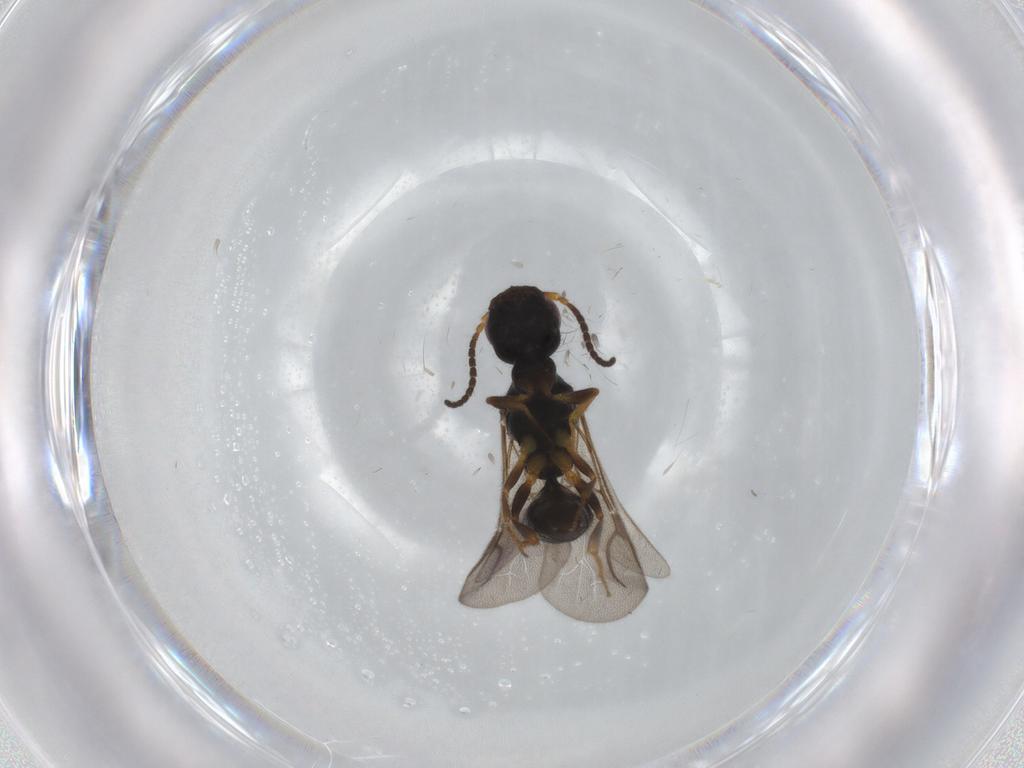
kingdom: Animalia
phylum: Arthropoda
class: Insecta
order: Hymenoptera
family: Bethylidae
